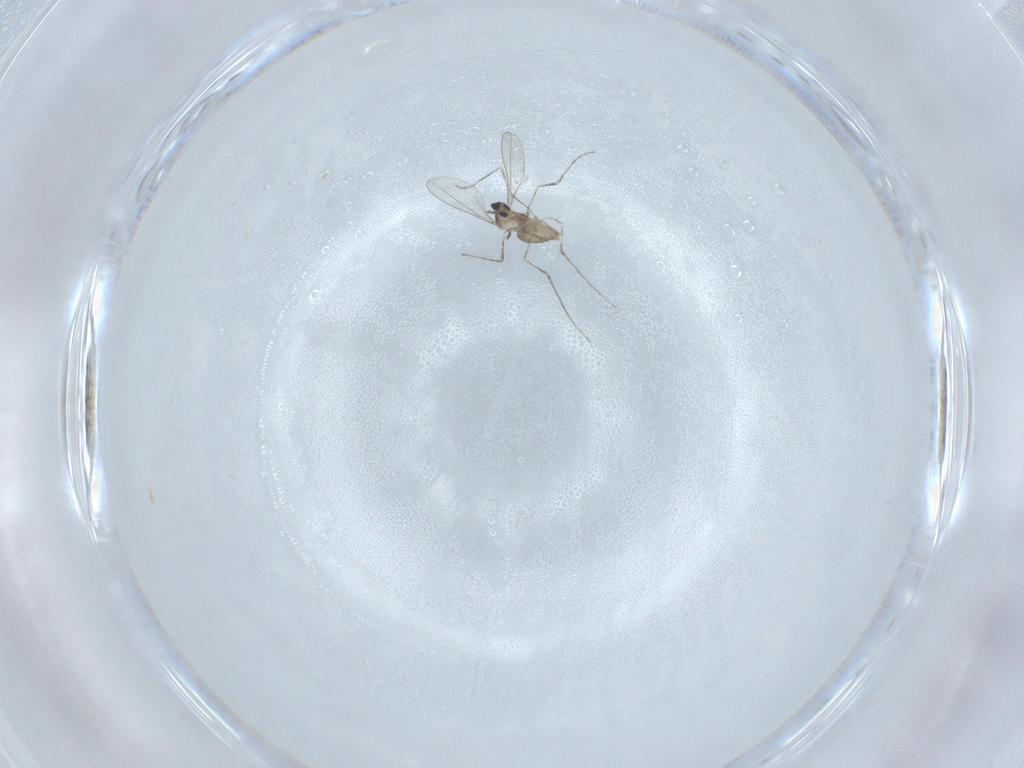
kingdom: Animalia
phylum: Arthropoda
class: Insecta
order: Diptera
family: Cecidomyiidae
